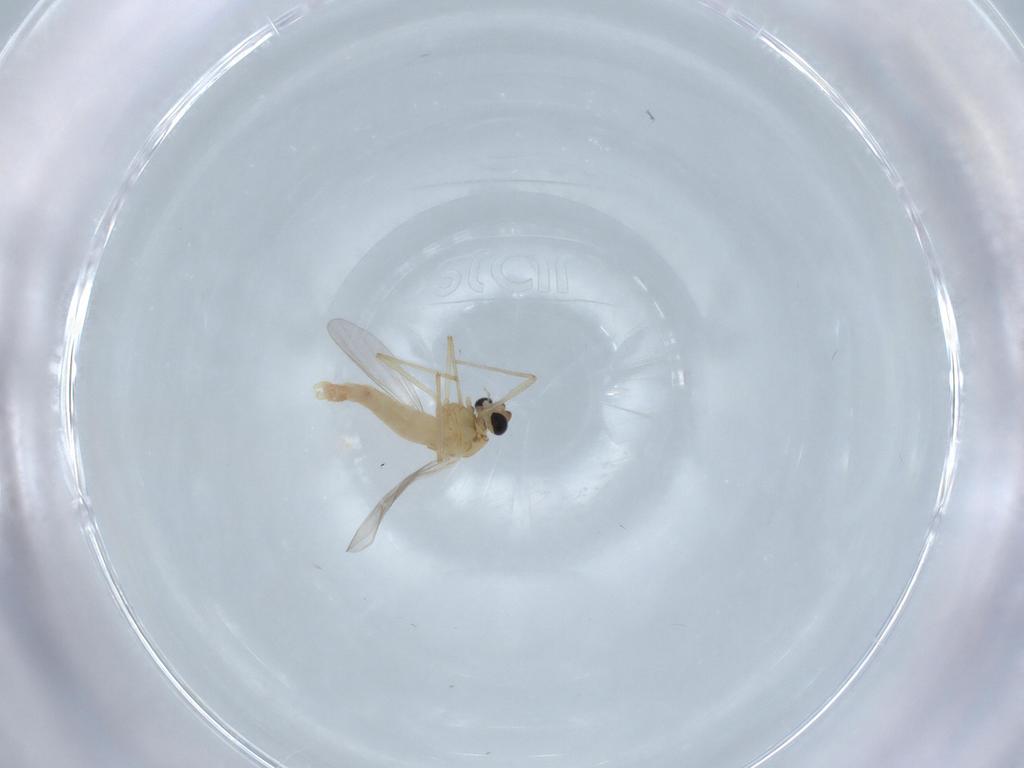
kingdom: Animalia
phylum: Arthropoda
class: Insecta
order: Diptera
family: Chironomidae
